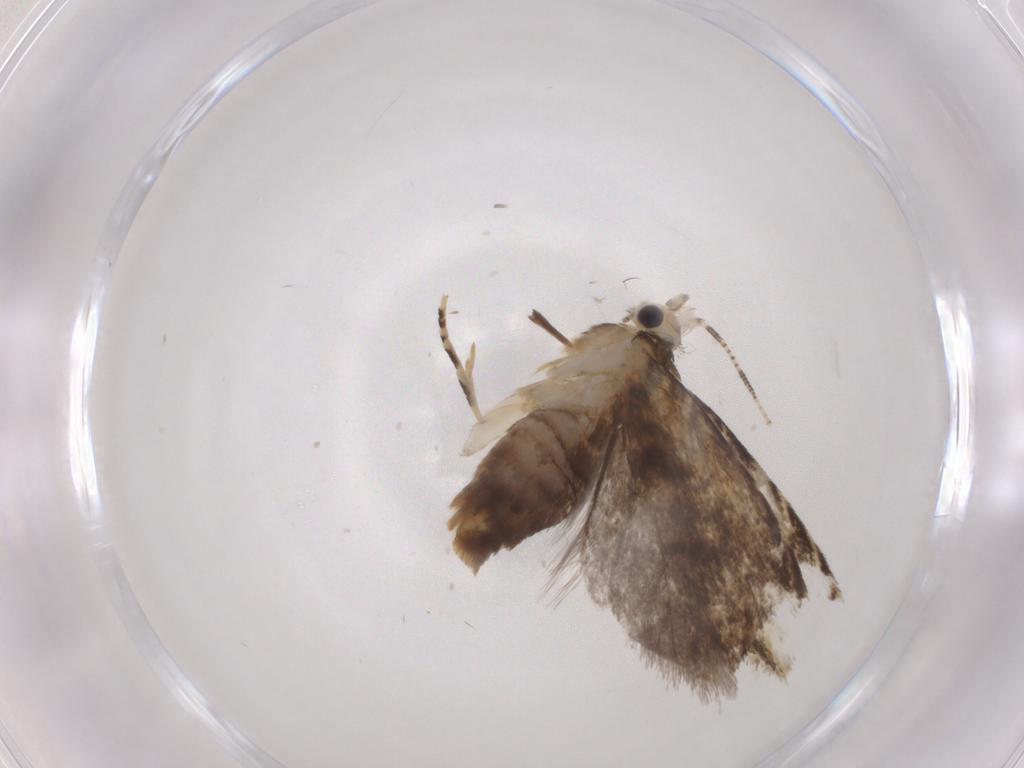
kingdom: Animalia
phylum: Arthropoda
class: Insecta
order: Lepidoptera
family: Tineidae
